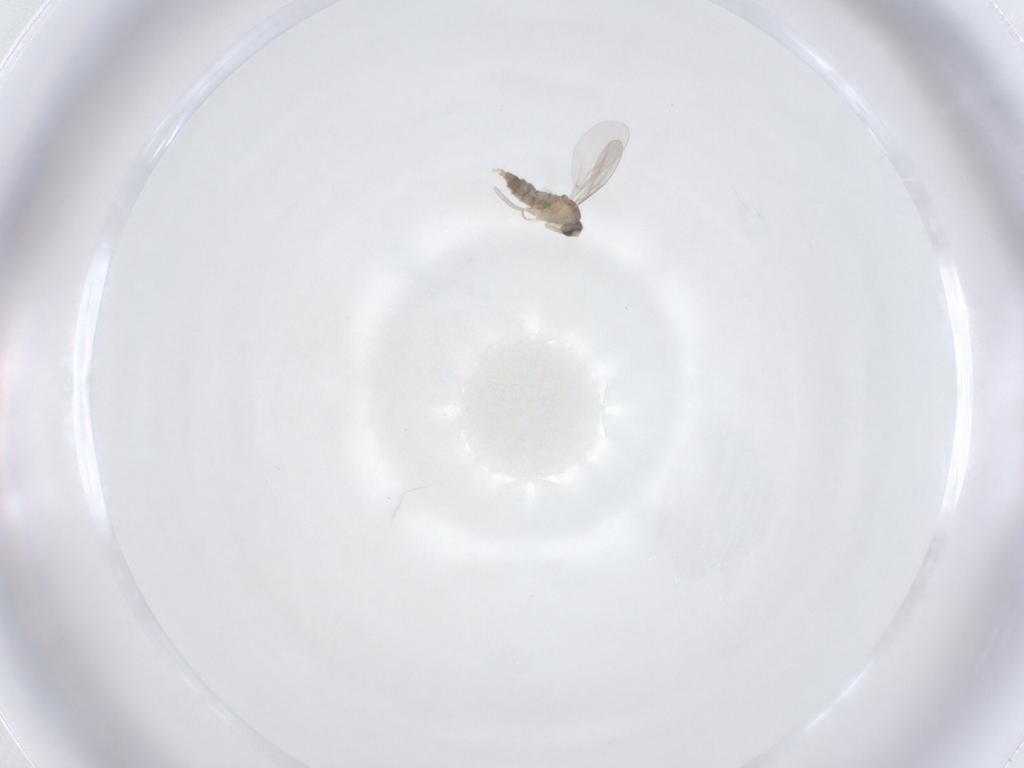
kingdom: Animalia
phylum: Arthropoda
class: Insecta
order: Diptera
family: Cecidomyiidae
